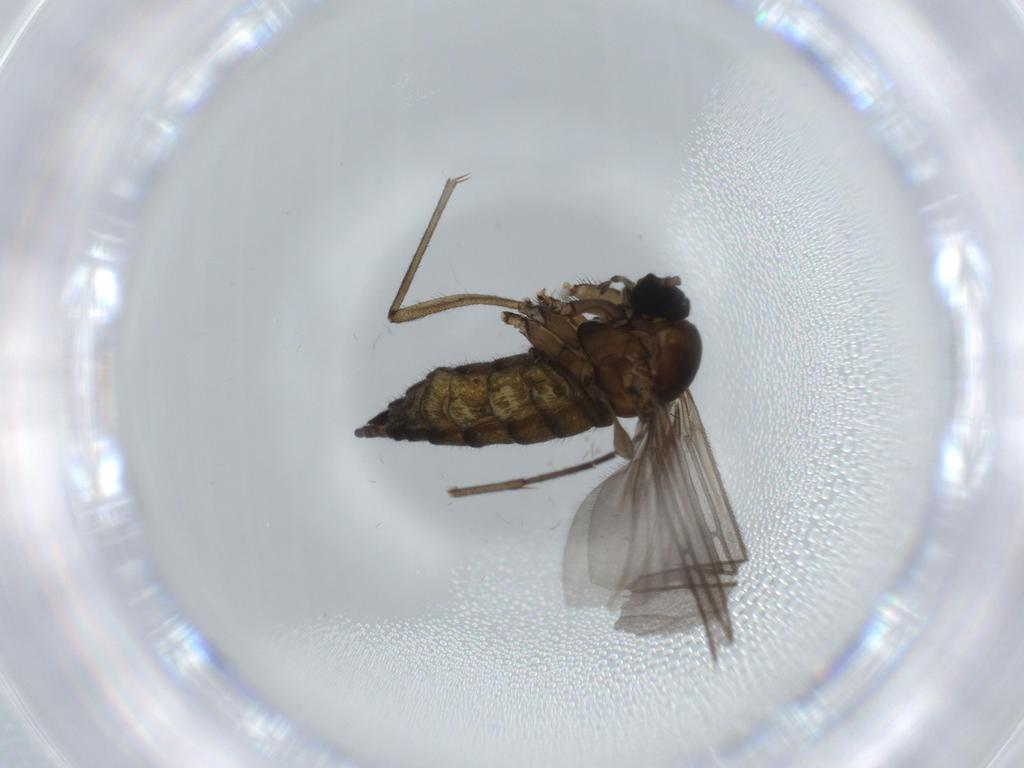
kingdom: Animalia
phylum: Arthropoda
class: Insecta
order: Diptera
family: Sciaridae
